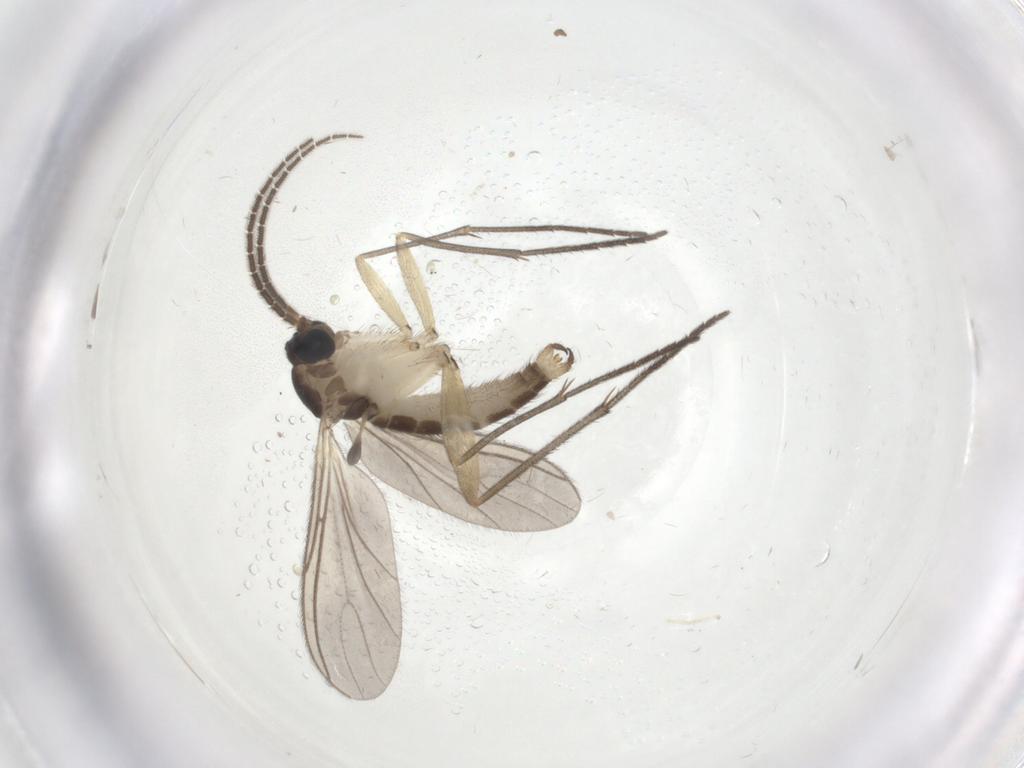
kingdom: Animalia
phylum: Arthropoda
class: Insecta
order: Diptera
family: Sciaridae
